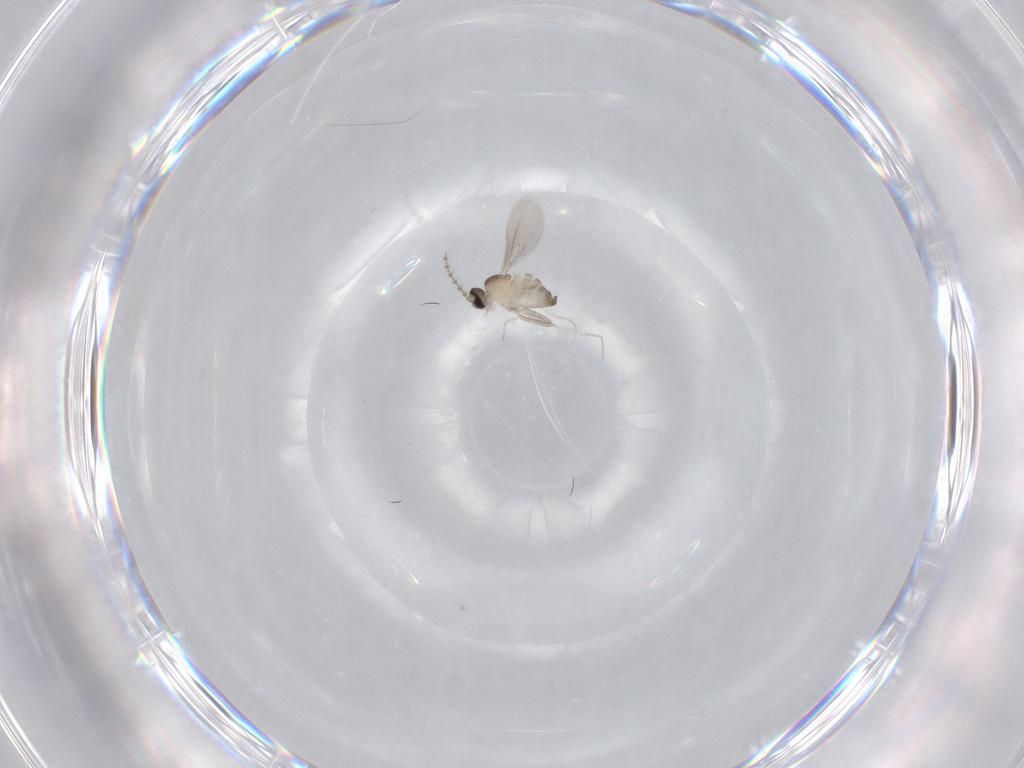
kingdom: Animalia
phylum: Arthropoda
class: Insecta
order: Diptera
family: Cecidomyiidae
